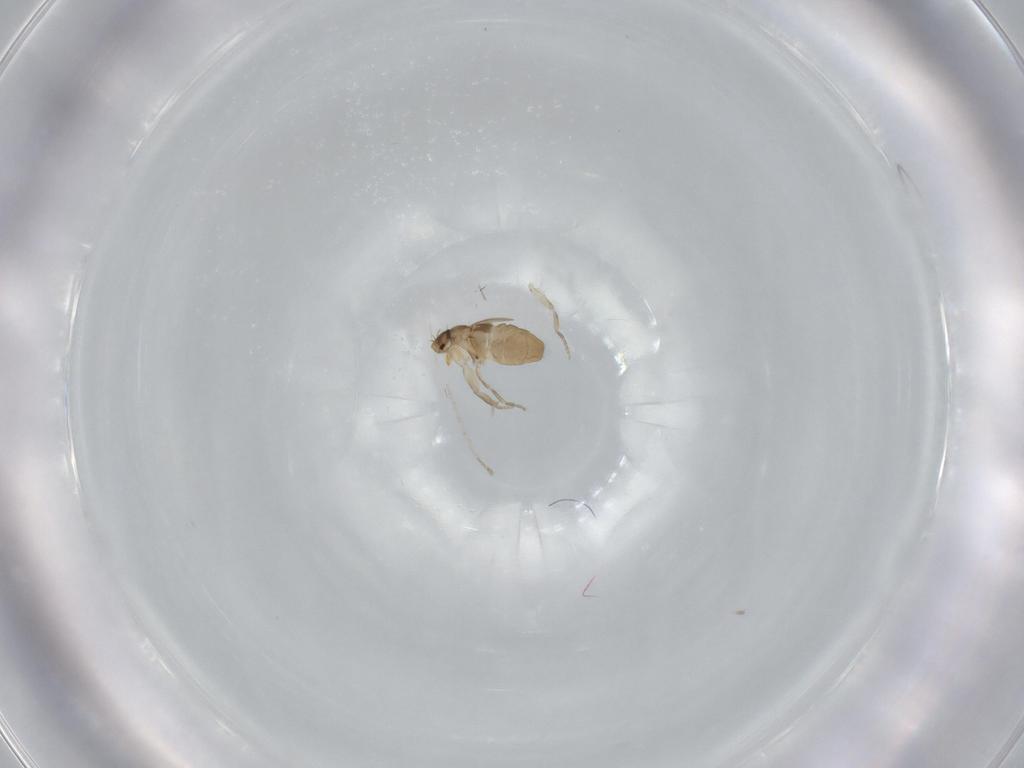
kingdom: Animalia
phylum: Arthropoda
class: Insecta
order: Diptera
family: Phoridae
